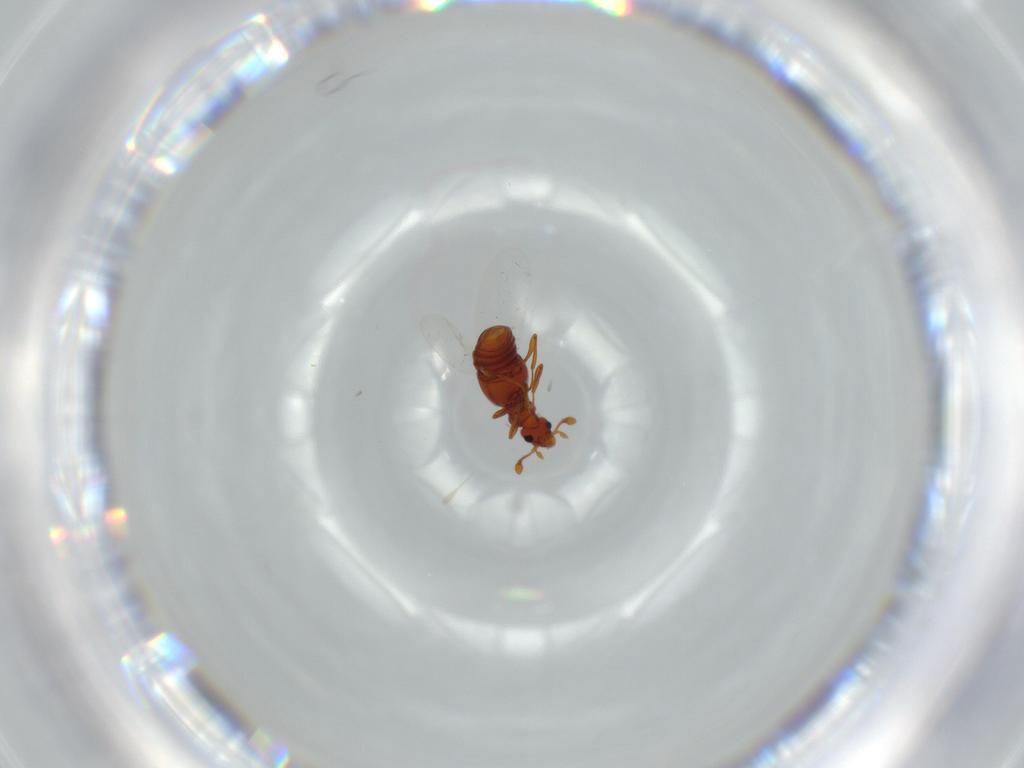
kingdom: Animalia
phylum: Arthropoda
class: Insecta
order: Coleoptera
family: Staphylinidae
